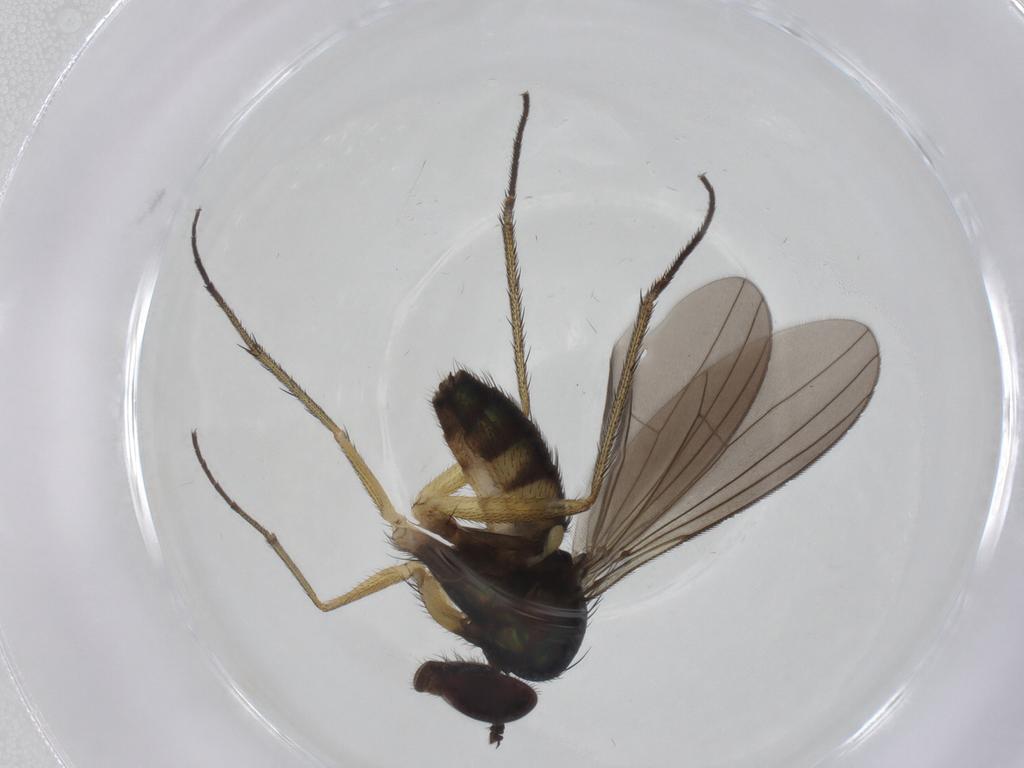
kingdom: Animalia
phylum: Arthropoda
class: Insecta
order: Diptera
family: Dolichopodidae
